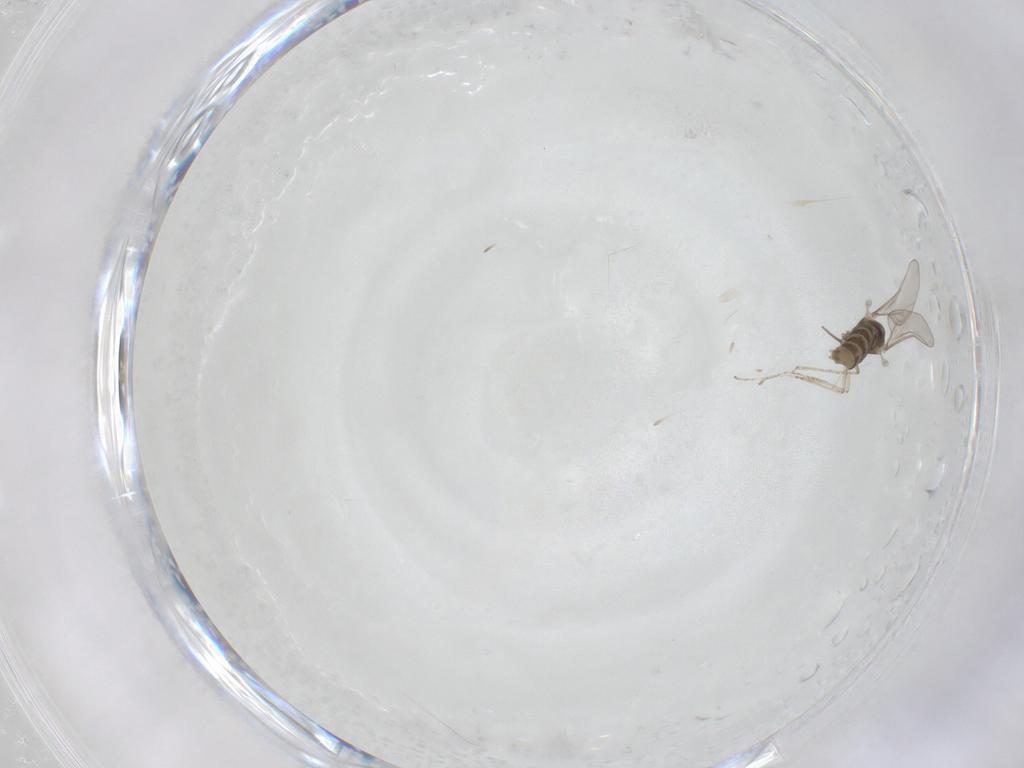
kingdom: Animalia
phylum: Arthropoda
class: Insecta
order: Diptera
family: Cecidomyiidae
